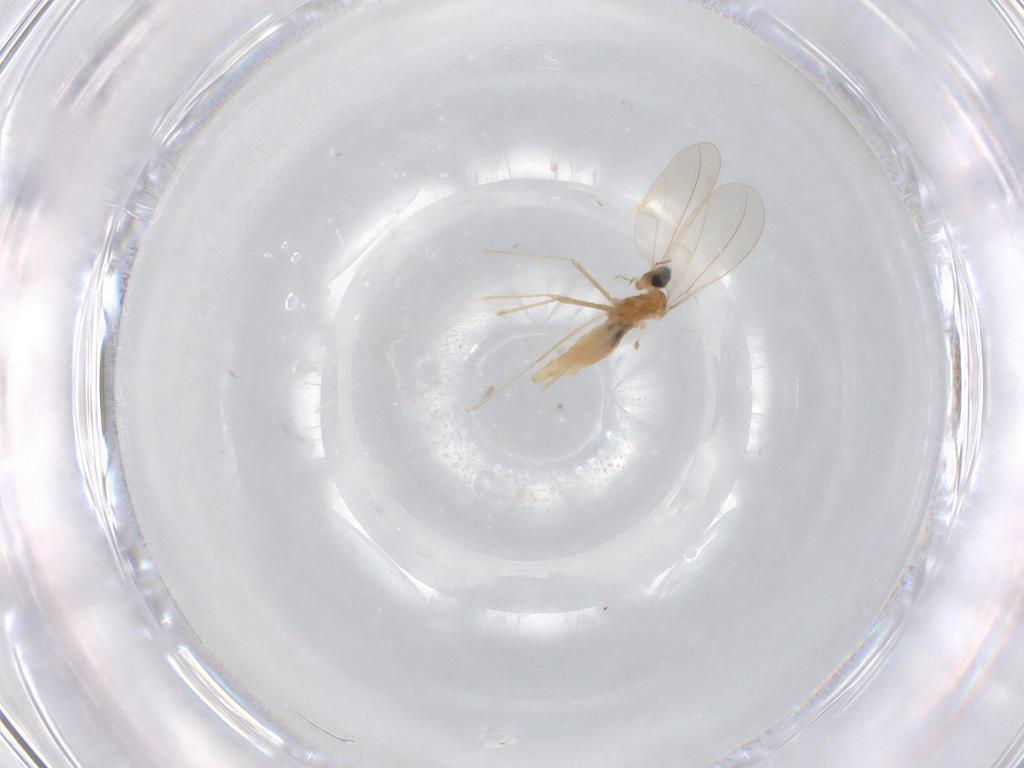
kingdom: Animalia
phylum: Arthropoda
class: Insecta
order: Diptera
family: Cecidomyiidae
